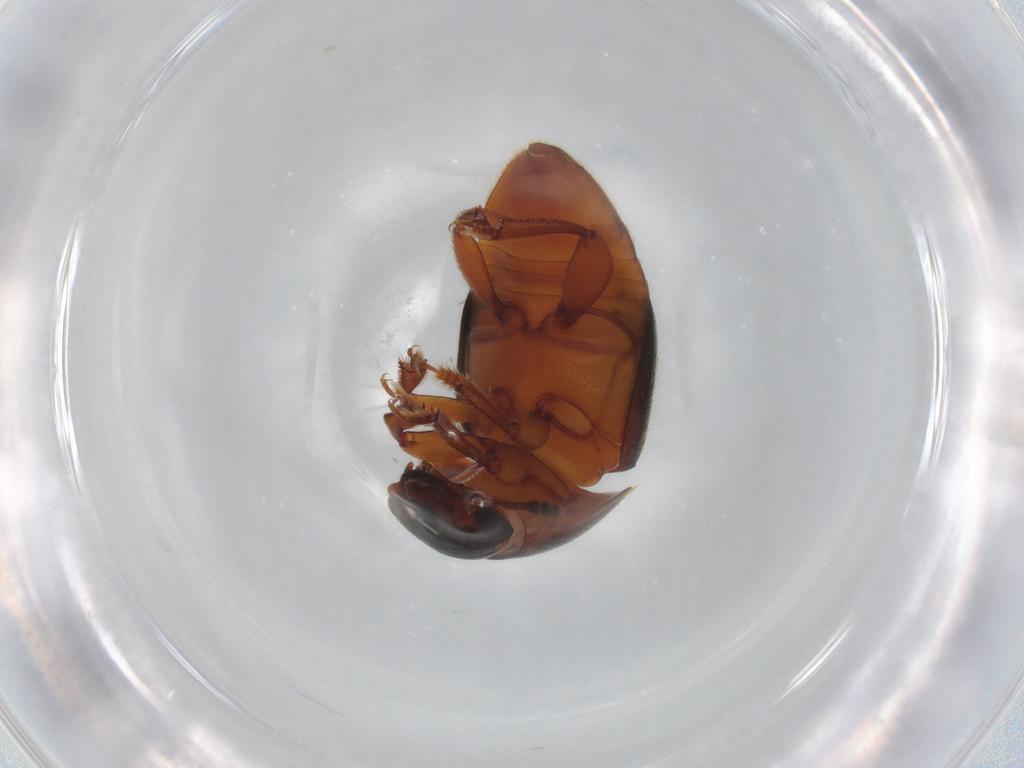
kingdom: Animalia
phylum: Arthropoda
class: Insecta
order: Coleoptera
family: Nitidulidae
